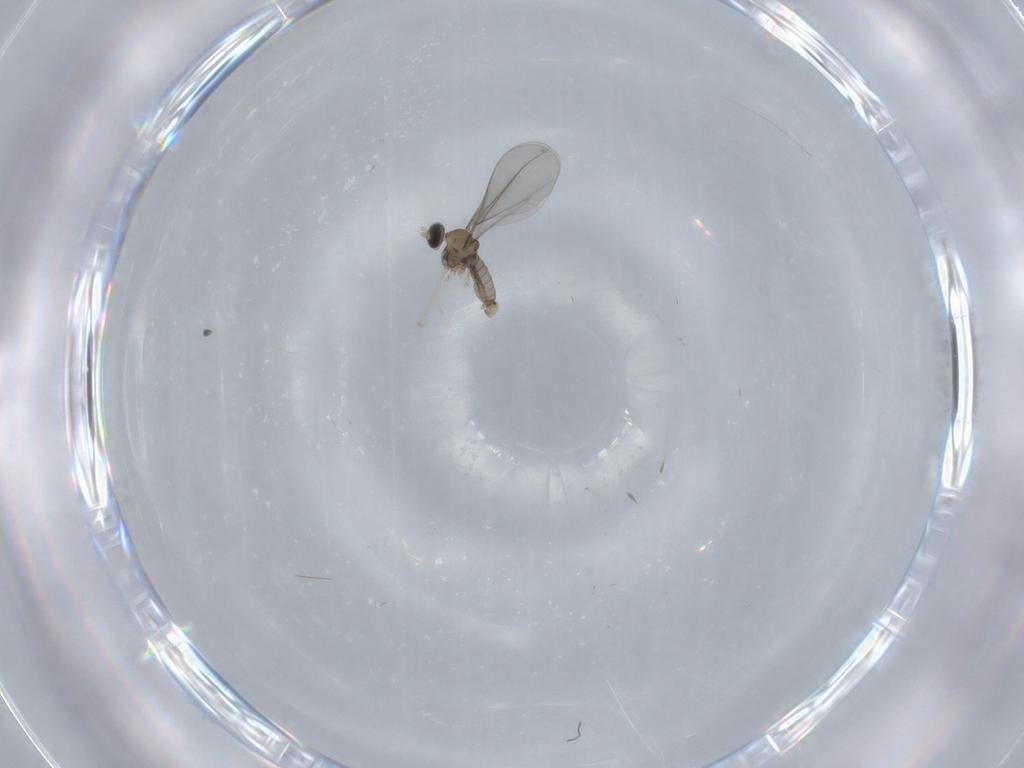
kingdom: Animalia
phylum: Arthropoda
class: Insecta
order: Diptera
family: Cecidomyiidae
